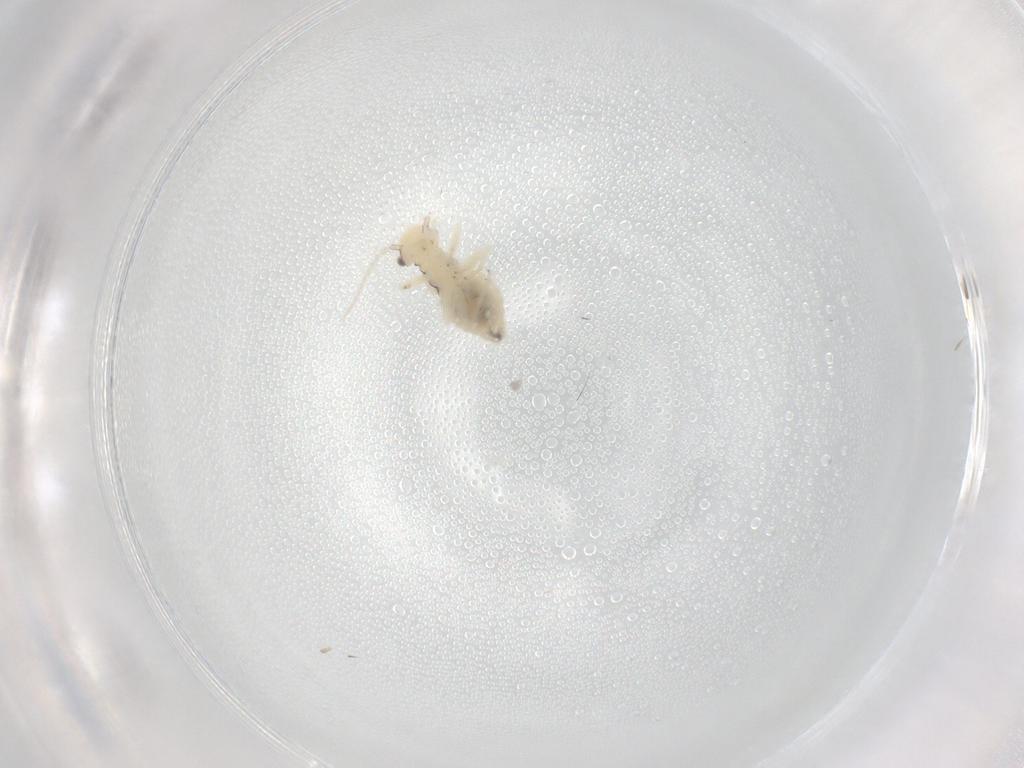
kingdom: Animalia
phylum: Arthropoda
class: Insecta
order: Psocodea
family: Caeciliusidae
